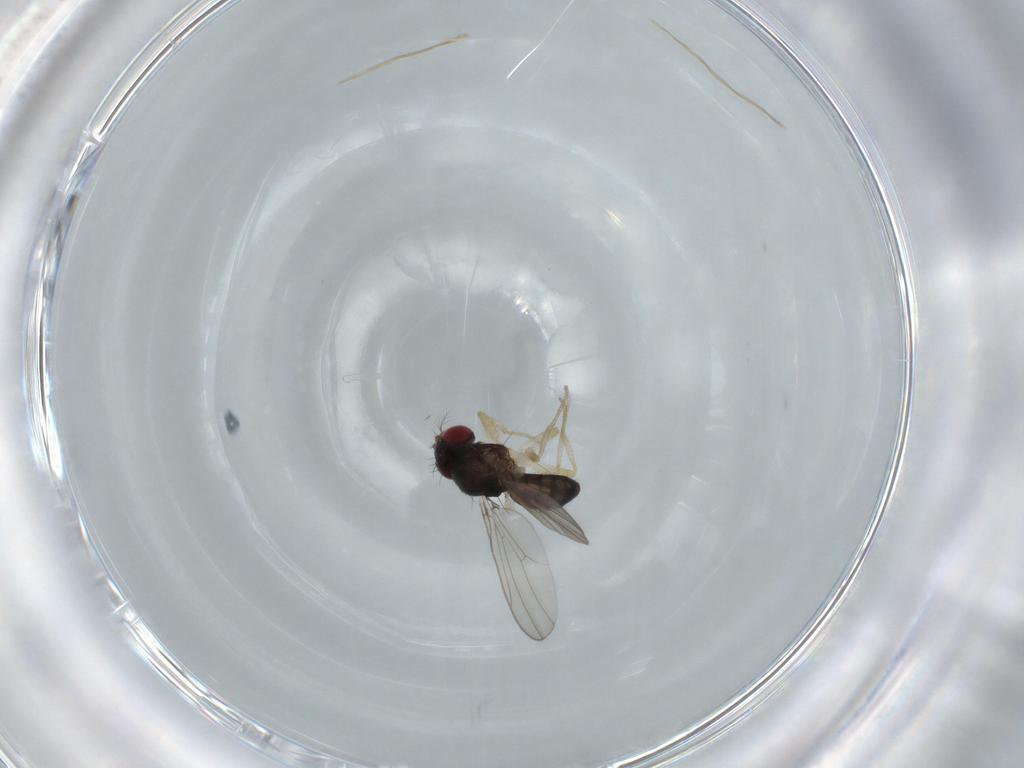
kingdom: Animalia
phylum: Arthropoda
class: Insecta
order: Diptera
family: Drosophilidae
